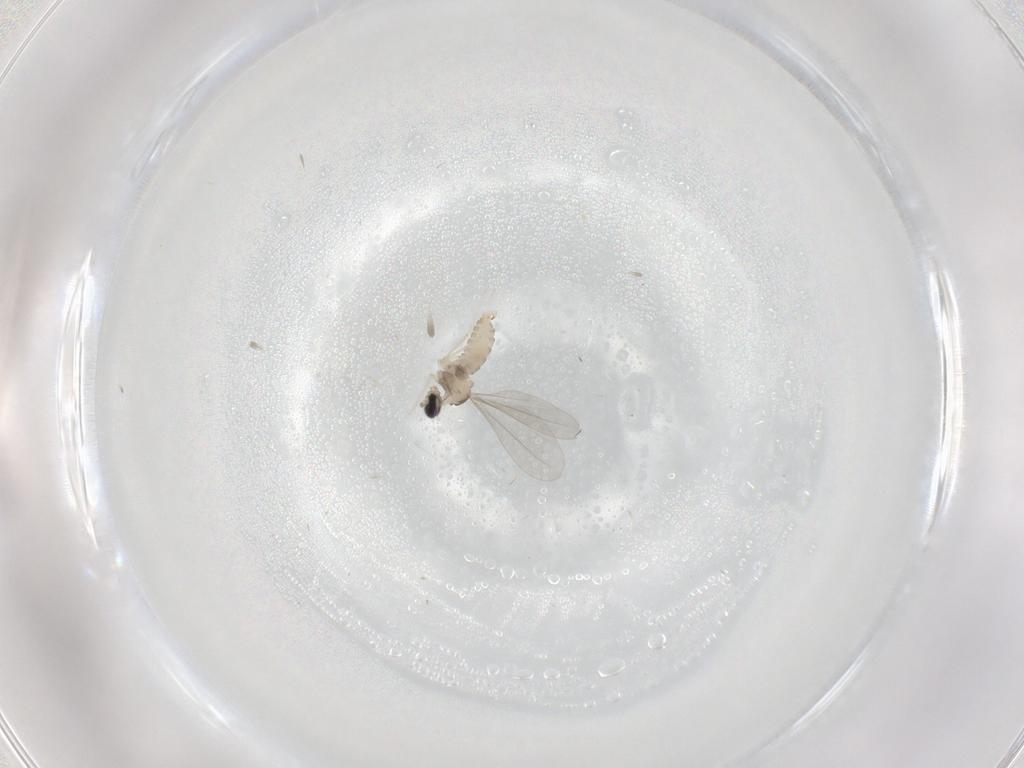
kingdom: Animalia
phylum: Arthropoda
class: Insecta
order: Diptera
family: Cecidomyiidae
